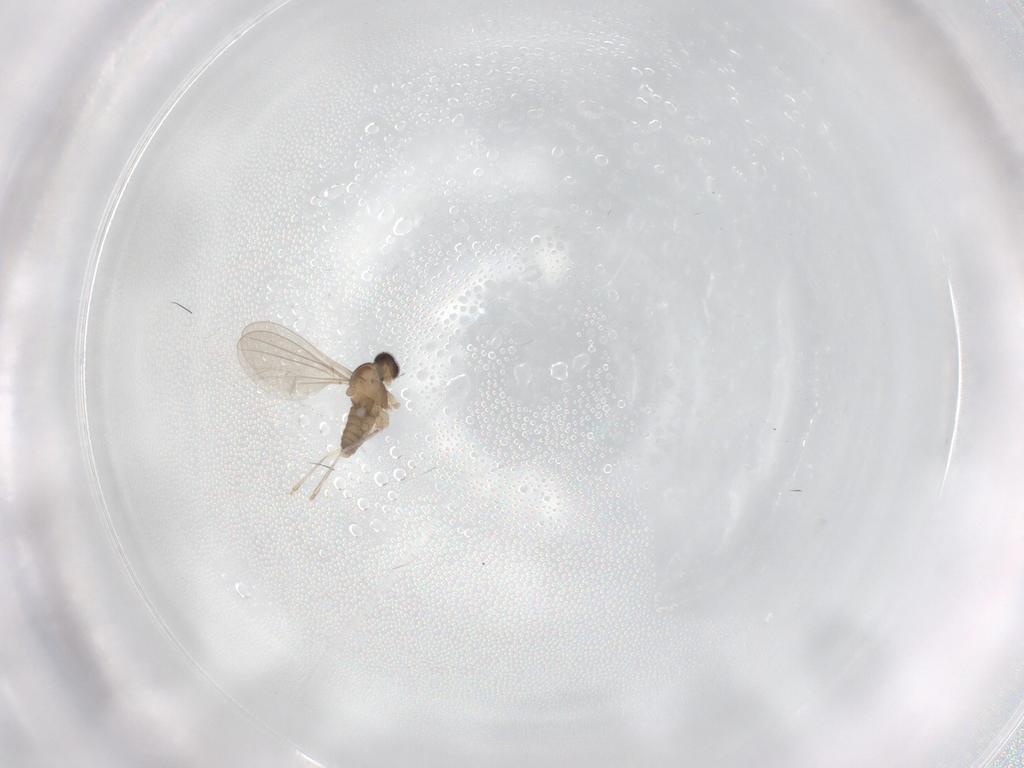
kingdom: Animalia
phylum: Arthropoda
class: Insecta
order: Diptera
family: Cecidomyiidae
